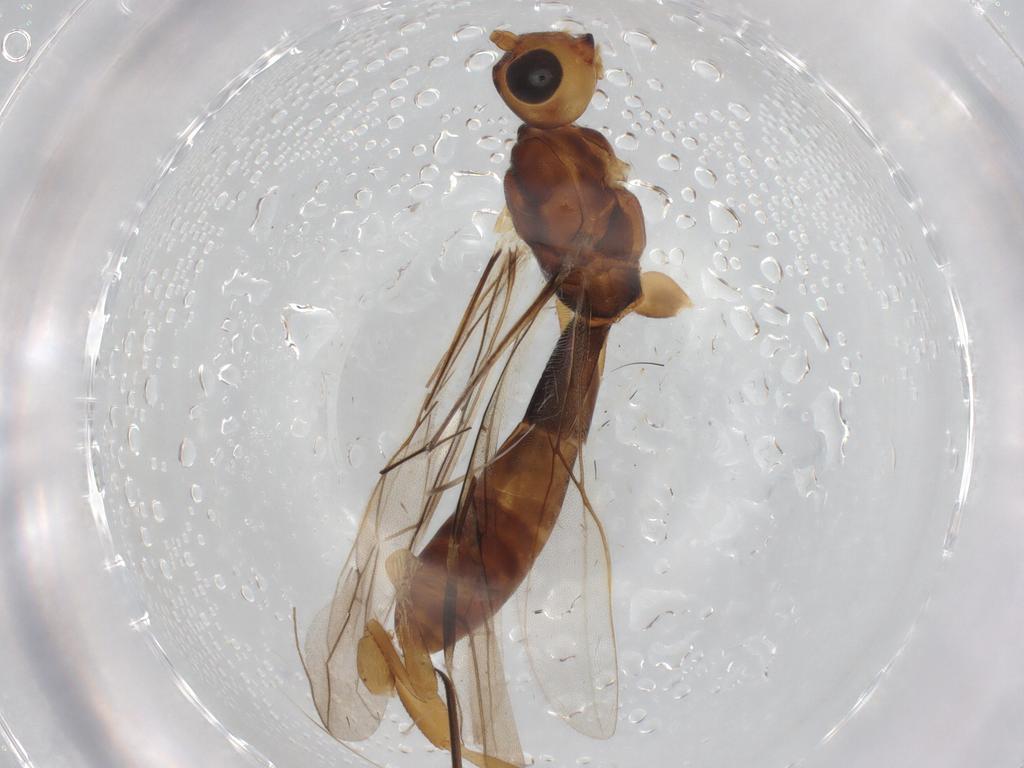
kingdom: Animalia
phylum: Arthropoda
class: Insecta
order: Hymenoptera
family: Braconidae
